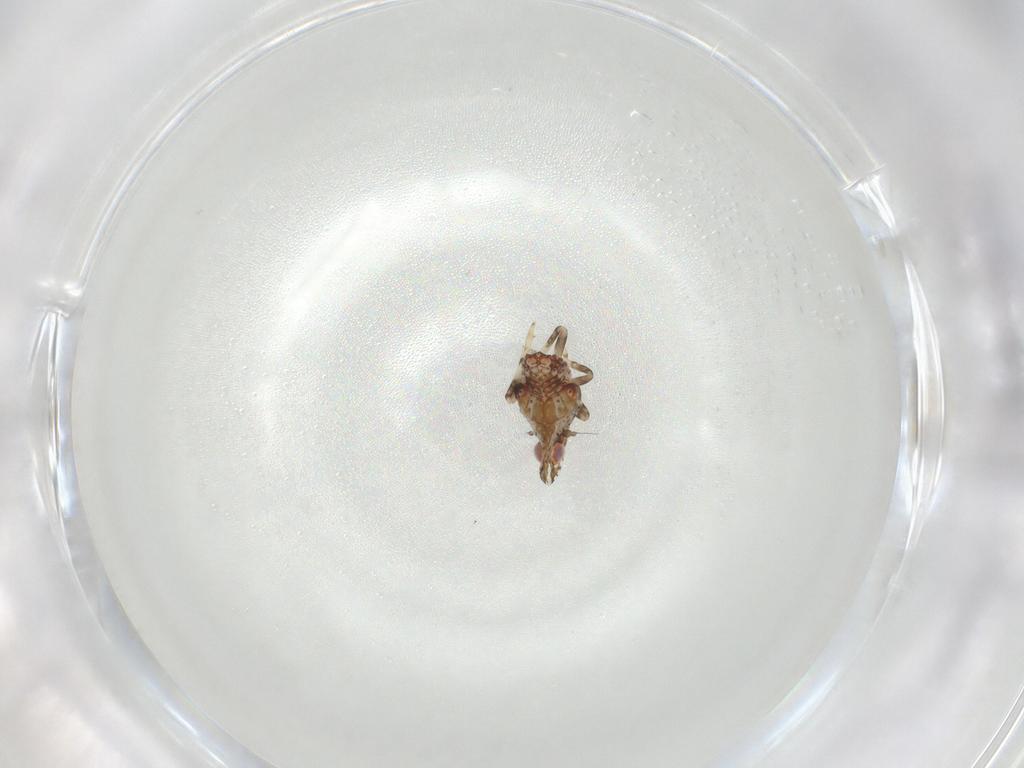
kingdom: Animalia
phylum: Arthropoda
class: Insecta
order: Hemiptera
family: Tropiduchidae
